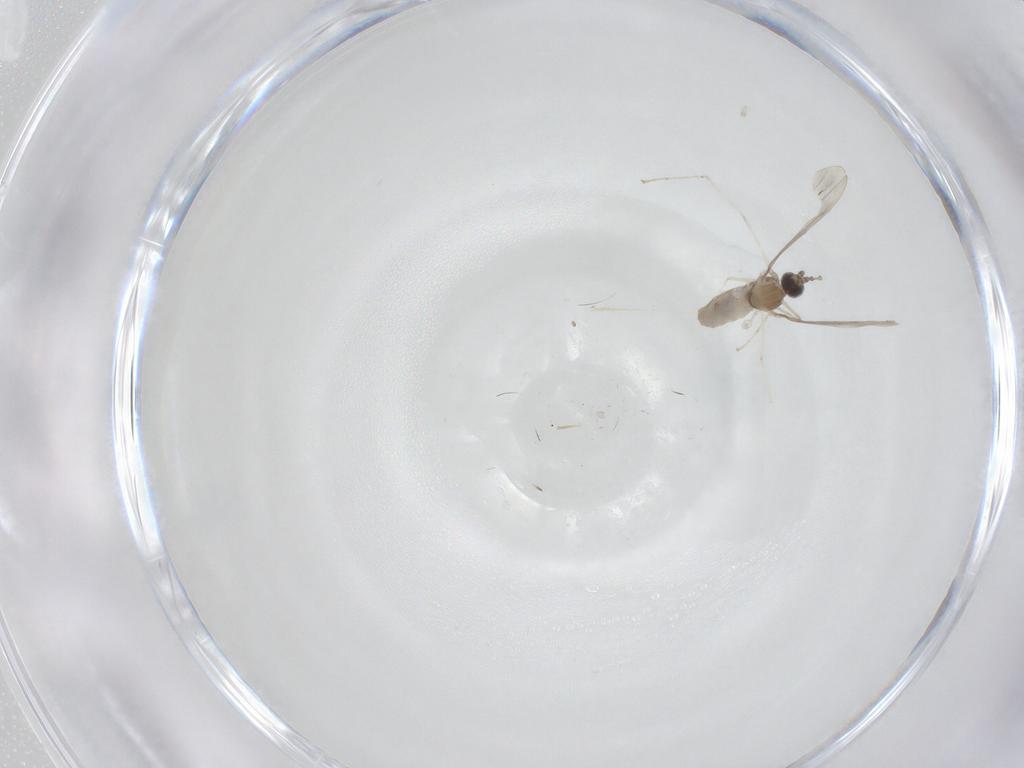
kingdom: Animalia
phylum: Arthropoda
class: Insecta
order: Diptera
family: Cecidomyiidae
